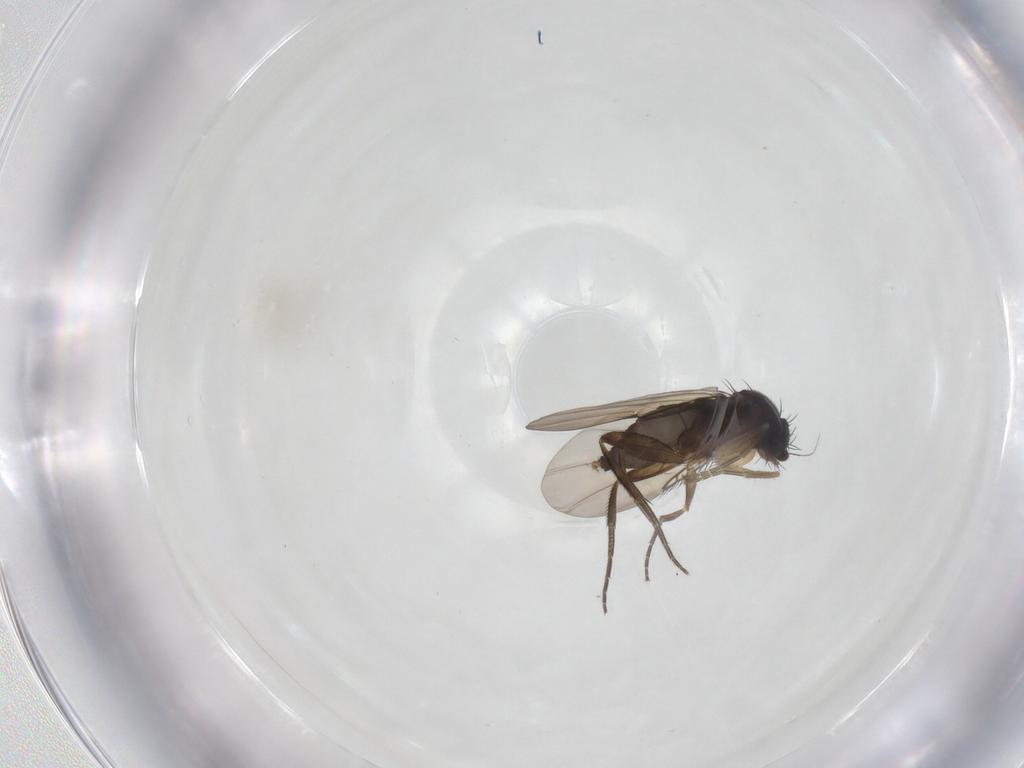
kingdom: Animalia
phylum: Arthropoda
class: Insecta
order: Diptera
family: Phoridae
